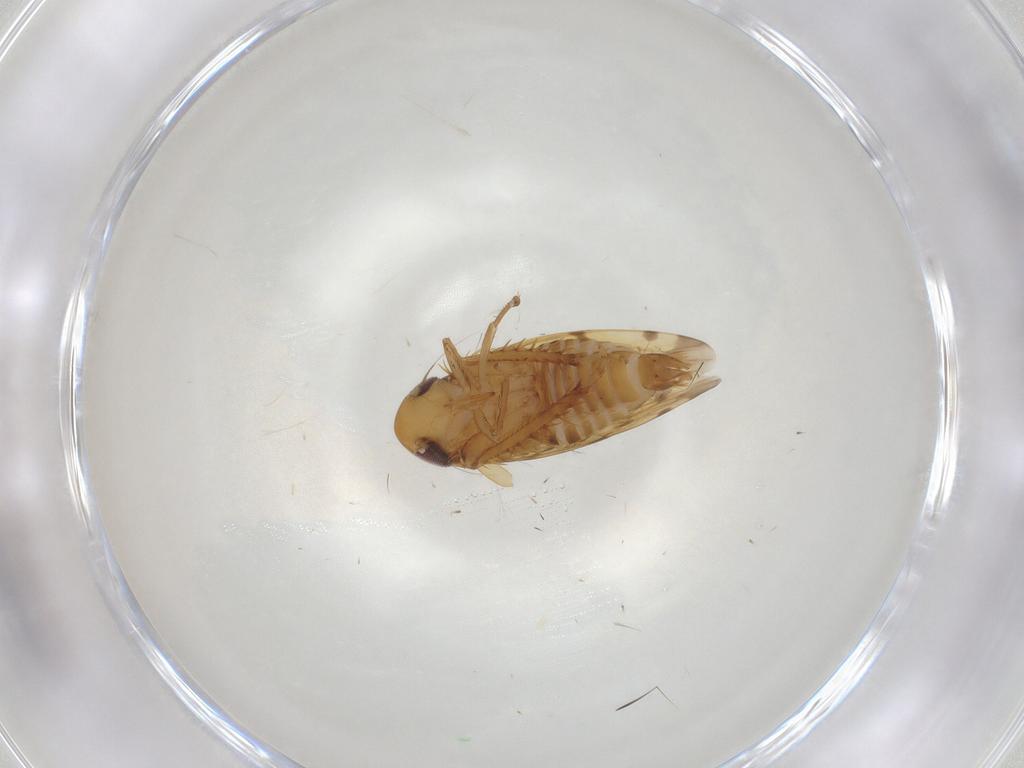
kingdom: Animalia
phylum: Arthropoda
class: Insecta
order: Hemiptera
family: Cicadellidae
